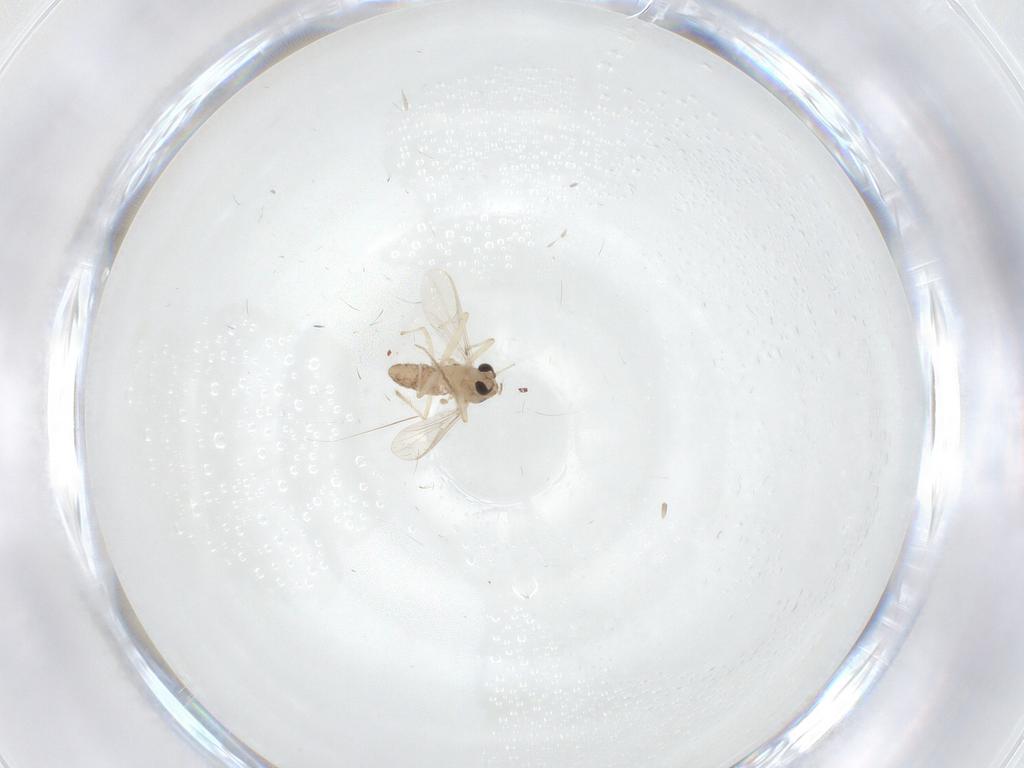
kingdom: Animalia
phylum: Arthropoda
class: Insecta
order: Diptera
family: Chironomidae
